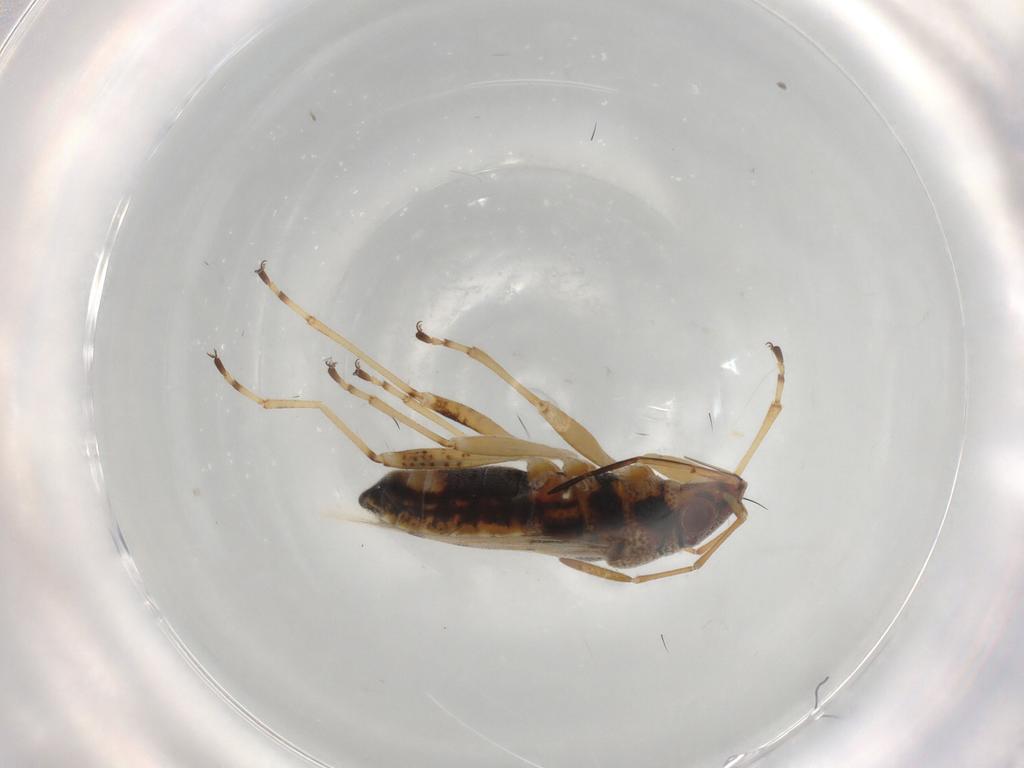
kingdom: Animalia
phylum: Arthropoda
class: Insecta
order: Hemiptera
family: Lygaeidae
